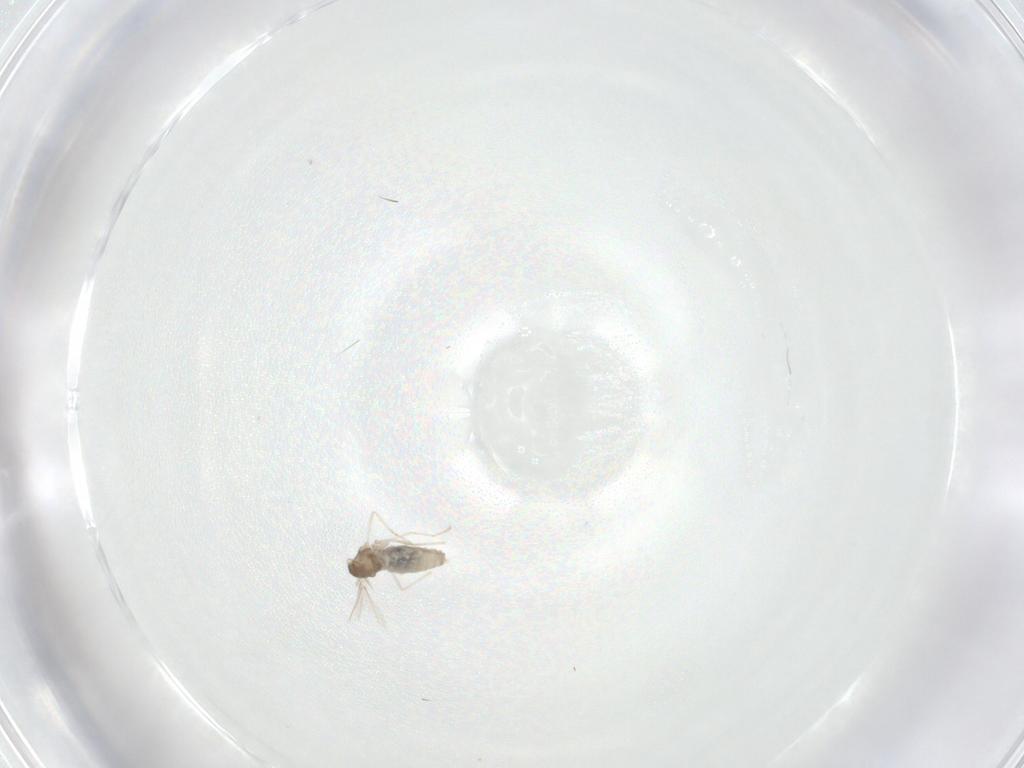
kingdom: Animalia
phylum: Arthropoda
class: Insecta
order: Diptera
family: Cecidomyiidae
